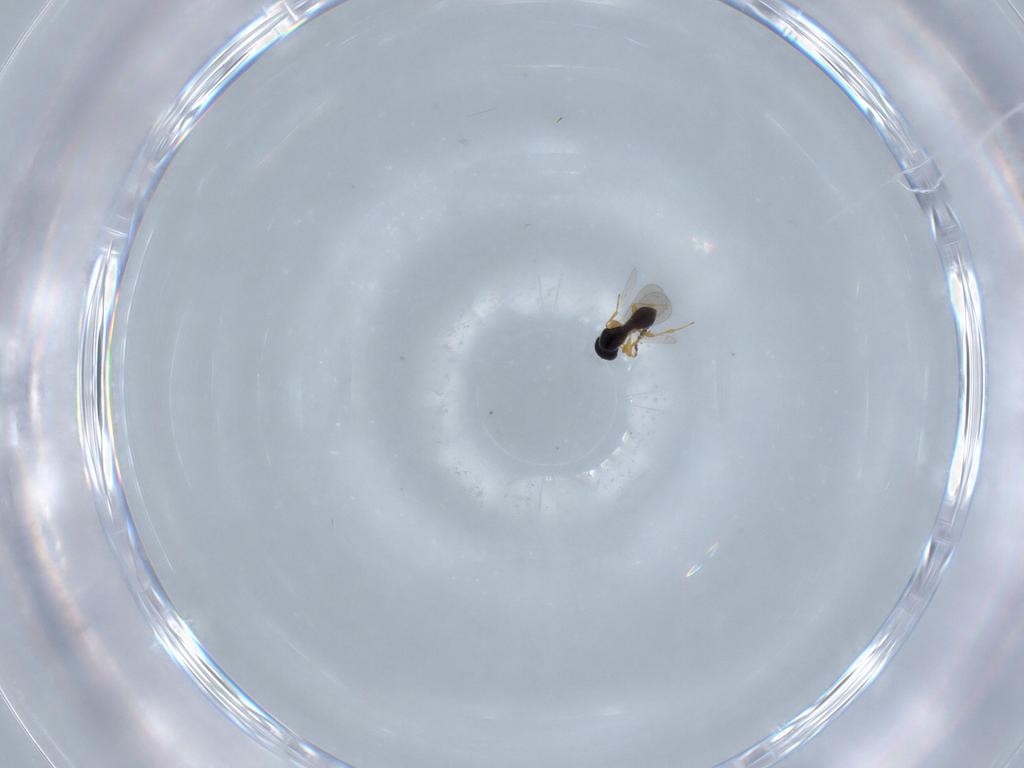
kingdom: Animalia
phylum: Arthropoda
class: Insecta
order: Hymenoptera
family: Platygastridae
